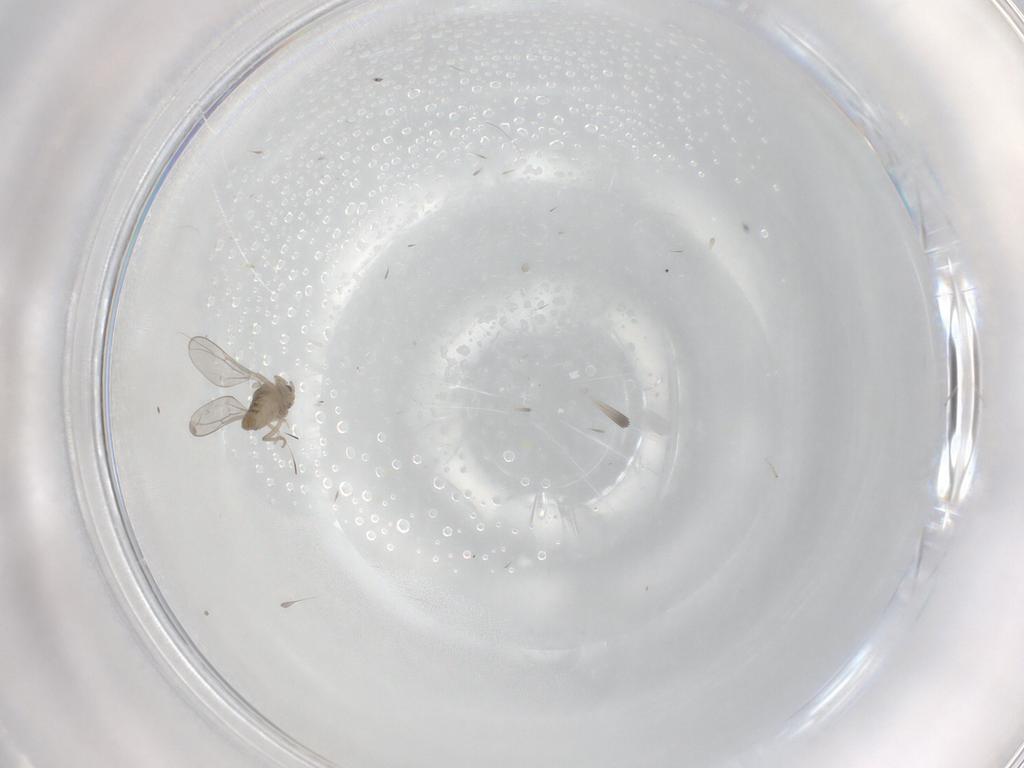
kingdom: Animalia
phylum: Arthropoda
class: Insecta
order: Diptera
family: Cecidomyiidae
